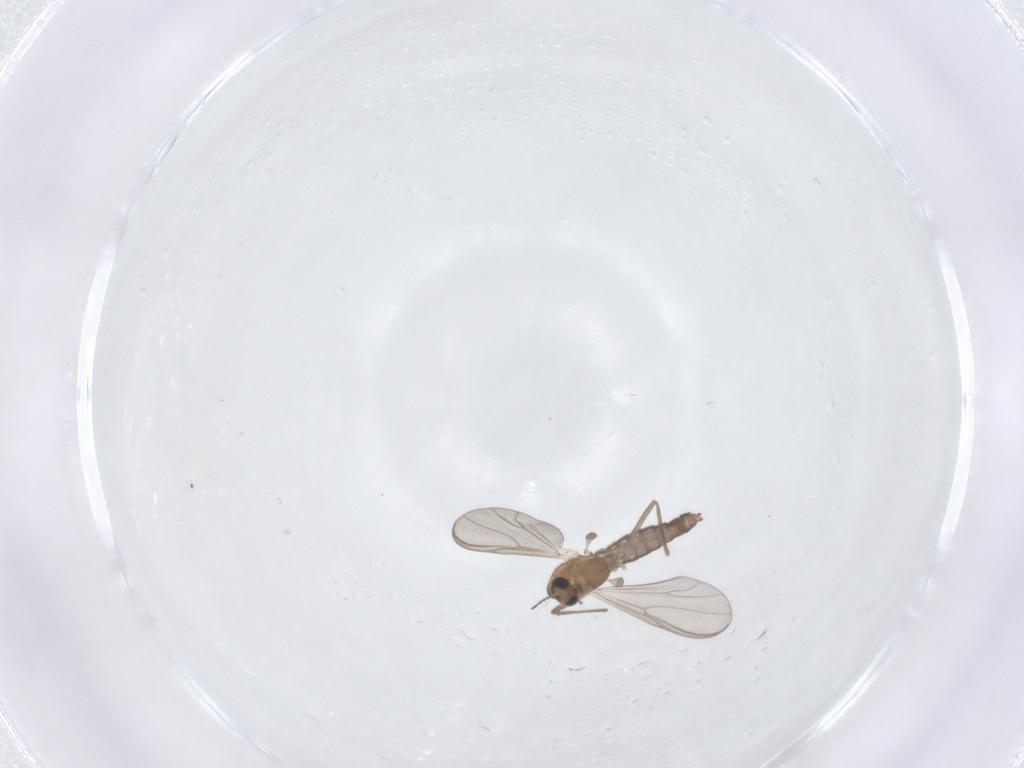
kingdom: Animalia
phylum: Arthropoda
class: Insecta
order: Diptera
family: Chironomidae
